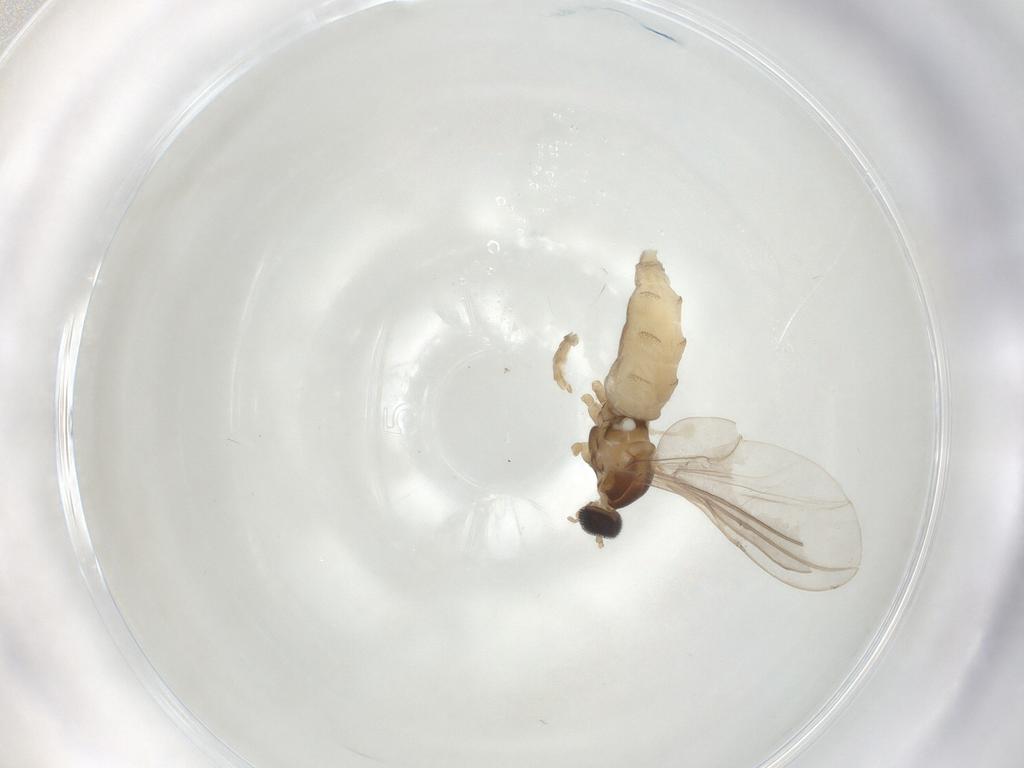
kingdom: Animalia
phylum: Arthropoda
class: Insecta
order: Diptera
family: Cecidomyiidae
